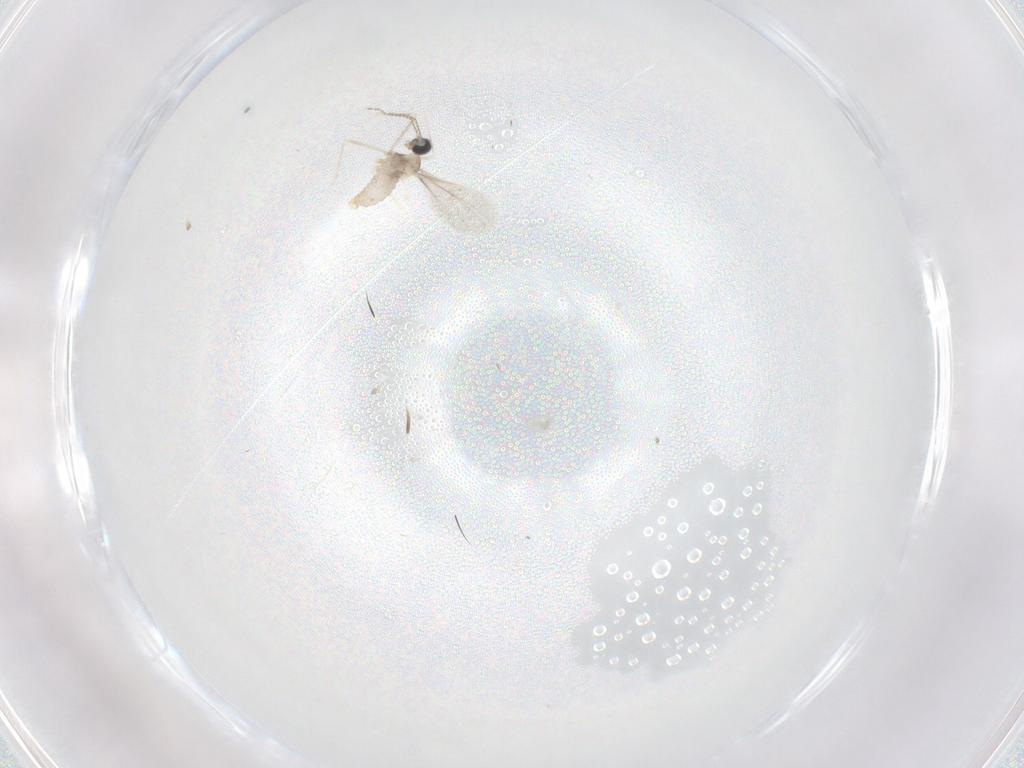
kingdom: Animalia
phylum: Arthropoda
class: Insecta
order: Diptera
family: Cecidomyiidae
